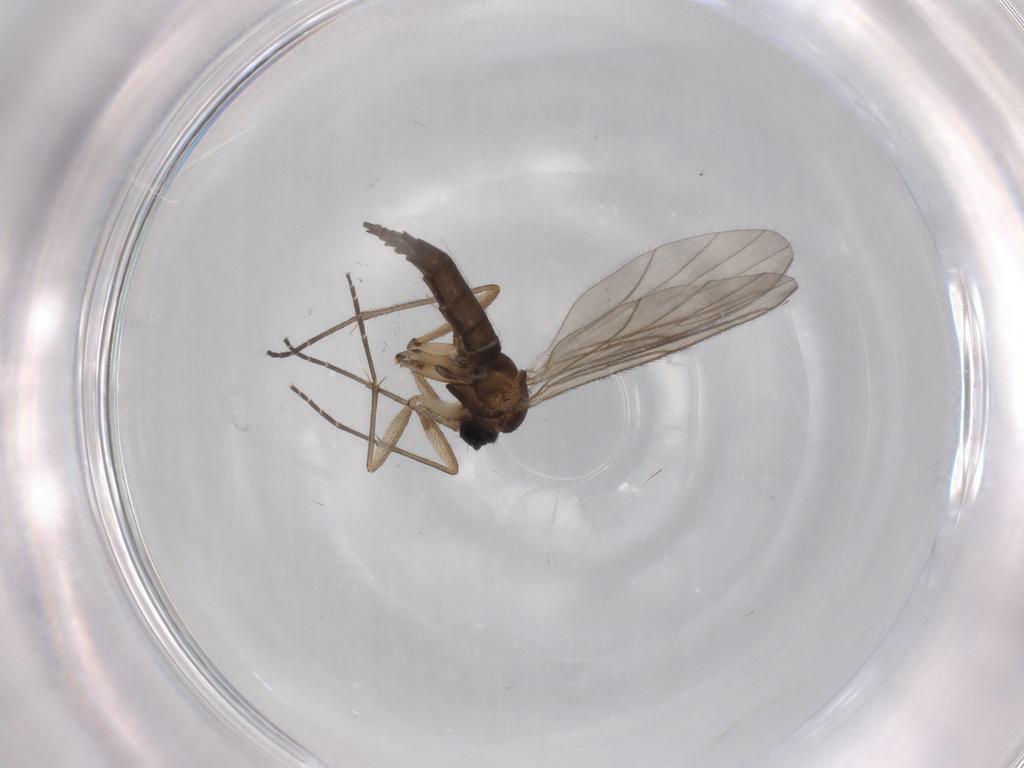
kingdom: Animalia
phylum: Arthropoda
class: Insecta
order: Diptera
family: Sciaridae
